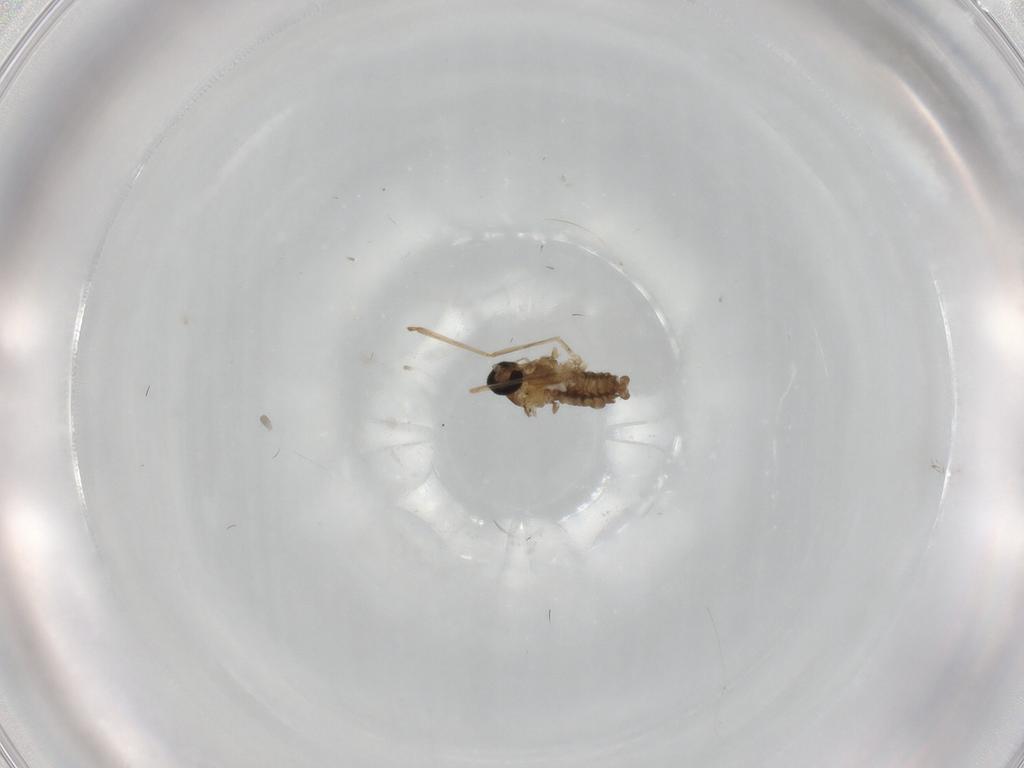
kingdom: Animalia
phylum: Arthropoda
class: Insecta
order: Diptera
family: Cecidomyiidae
